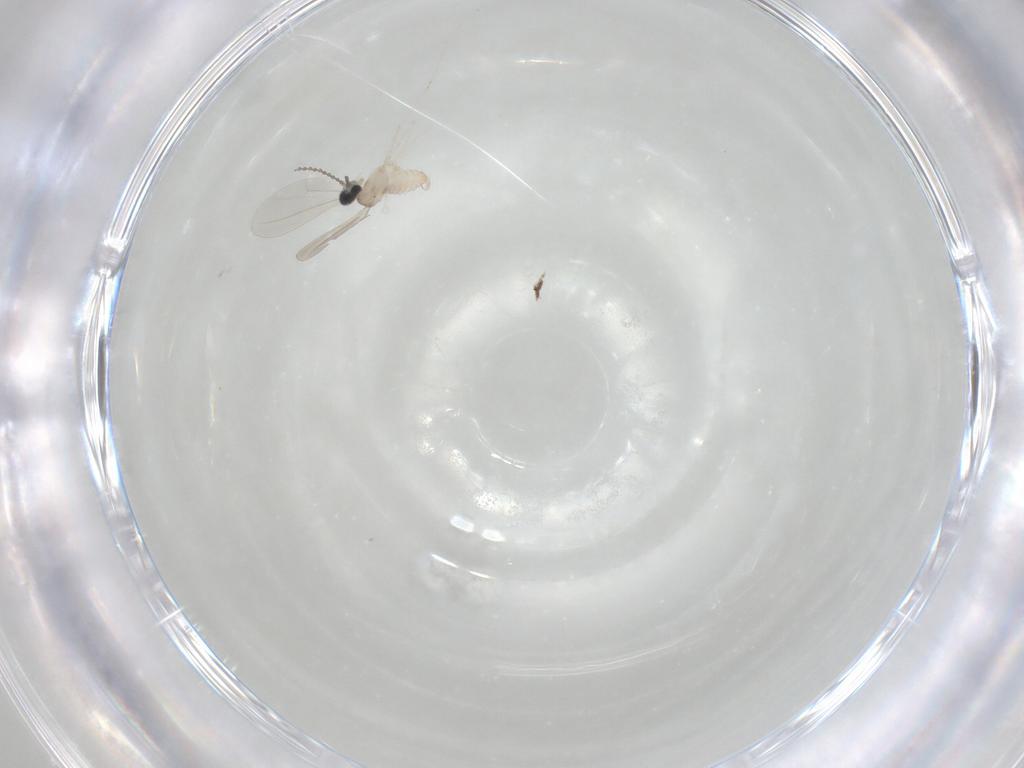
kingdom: Animalia
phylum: Arthropoda
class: Insecta
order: Diptera
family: Cecidomyiidae
